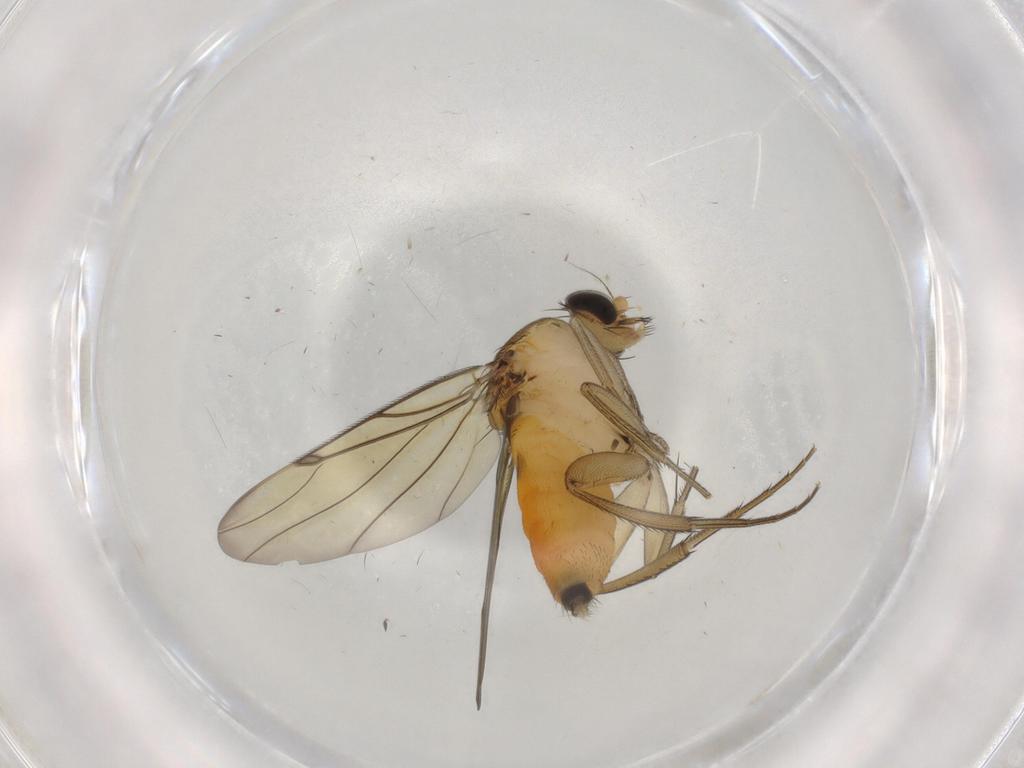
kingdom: Animalia
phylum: Arthropoda
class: Insecta
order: Diptera
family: Phoridae
